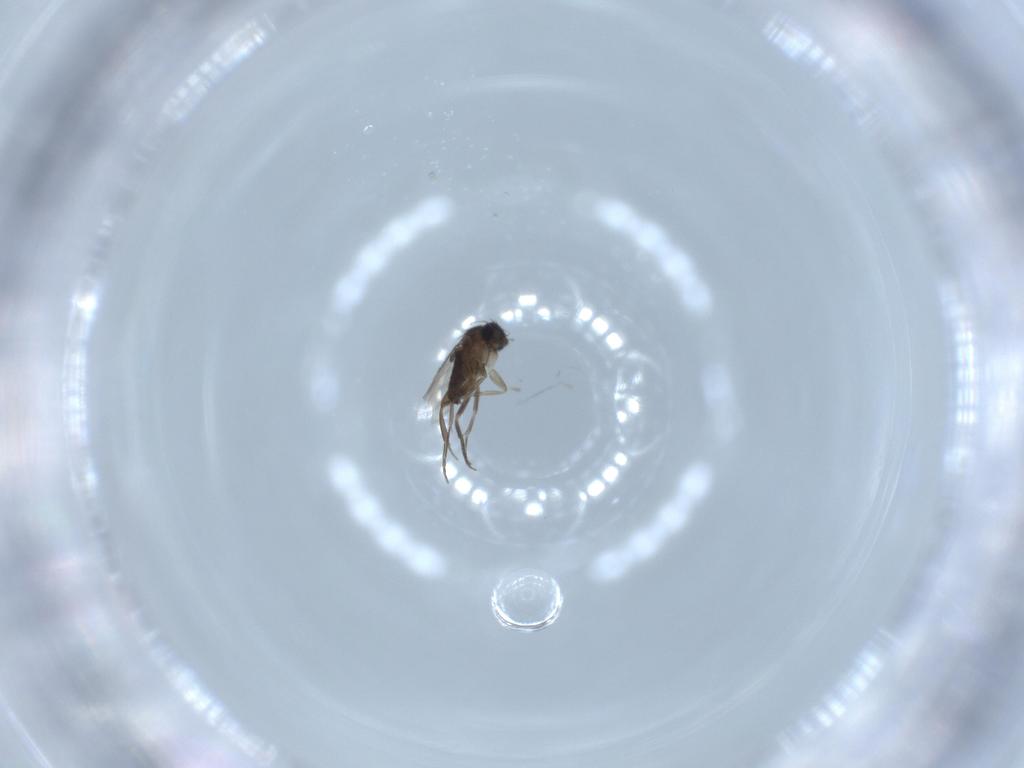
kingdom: Animalia
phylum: Arthropoda
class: Insecta
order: Diptera
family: Phoridae
